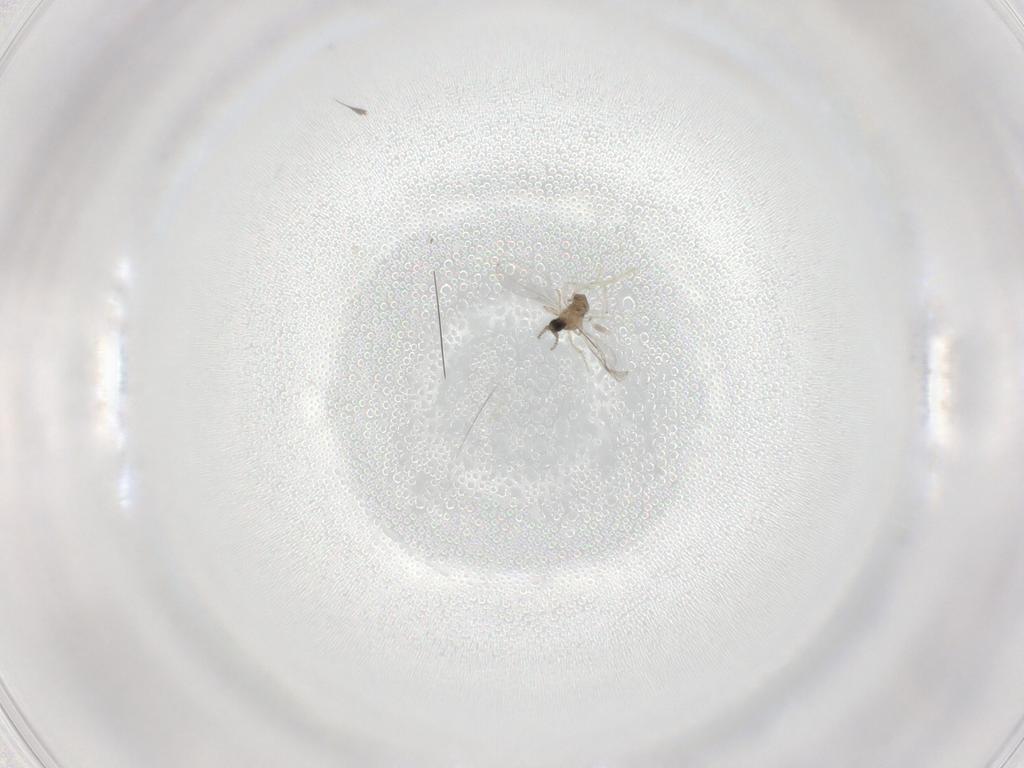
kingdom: Animalia
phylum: Arthropoda
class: Insecta
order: Diptera
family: Cecidomyiidae
